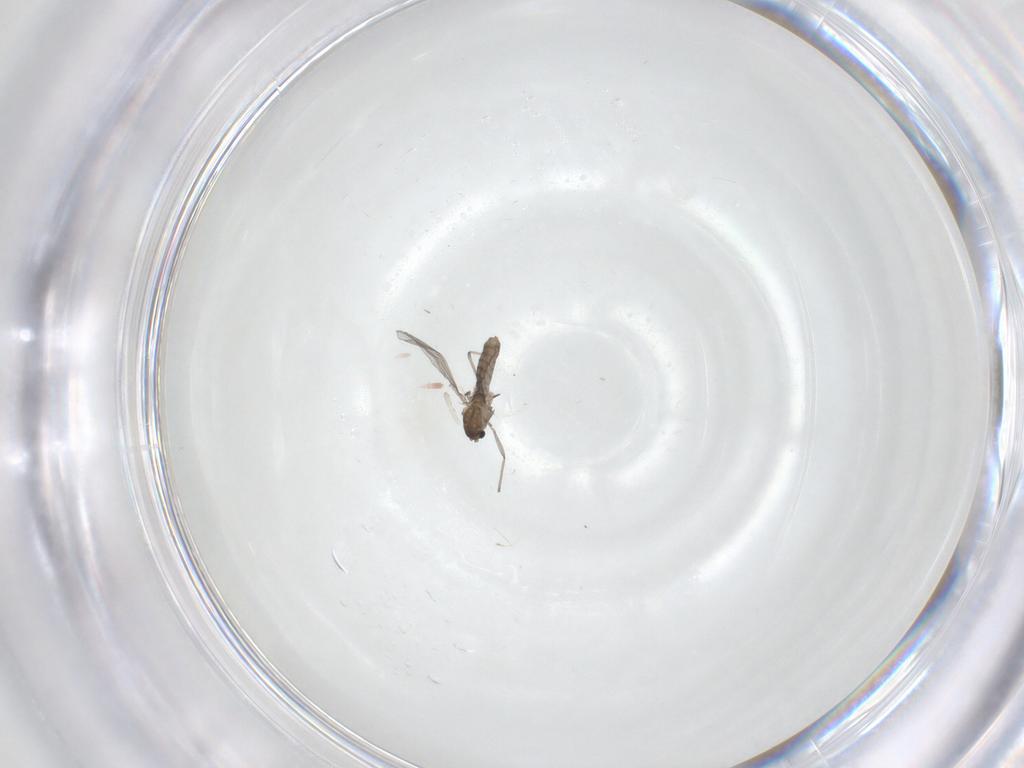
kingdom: Animalia
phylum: Arthropoda
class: Insecta
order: Diptera
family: Chironomidae
